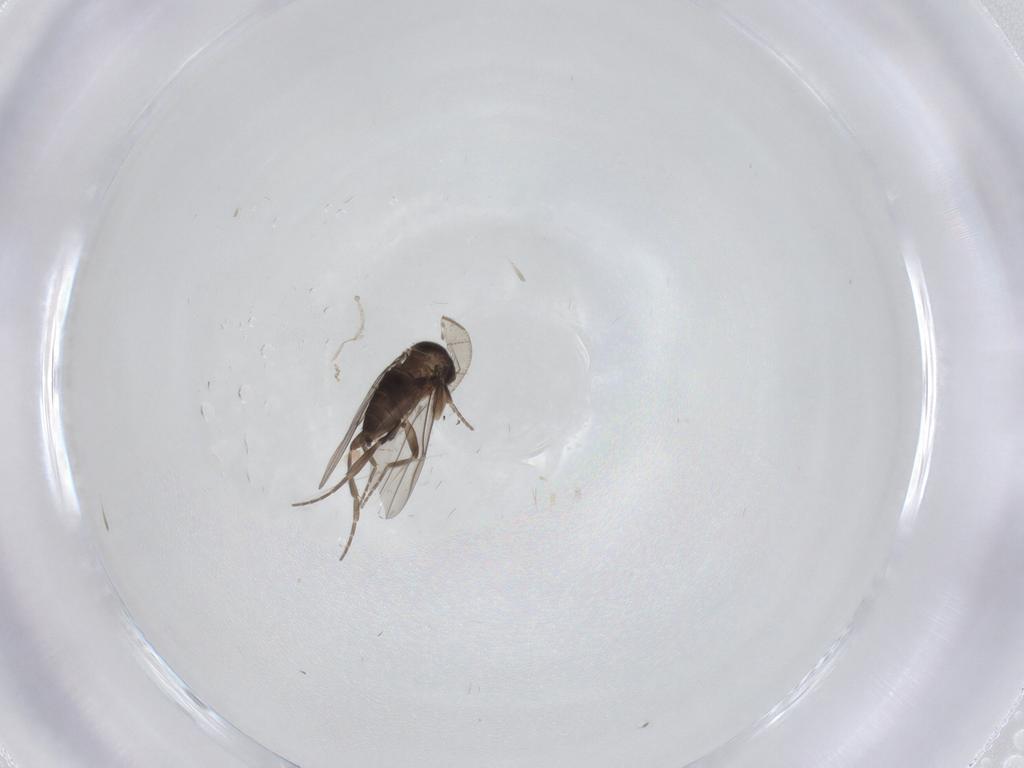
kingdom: Animalia
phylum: Arthropoda
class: Insecta
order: Diptera
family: Phoridae
